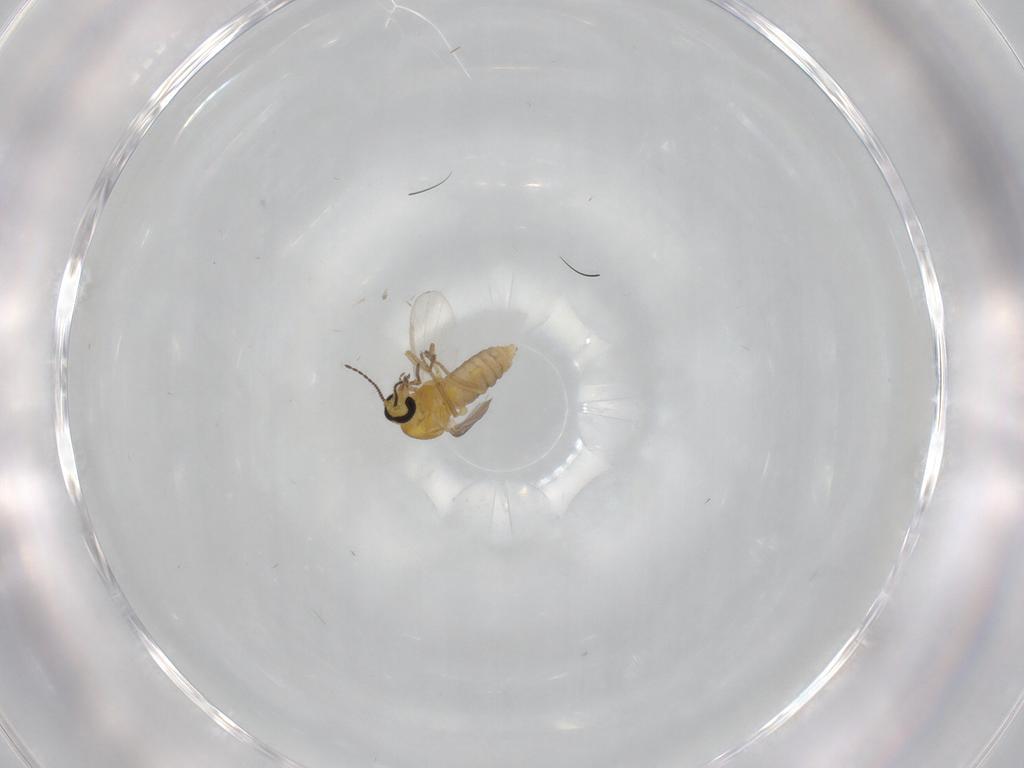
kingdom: Animalia
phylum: Arthropoda
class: Insecta
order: Diptera
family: Ceratopogonidae
